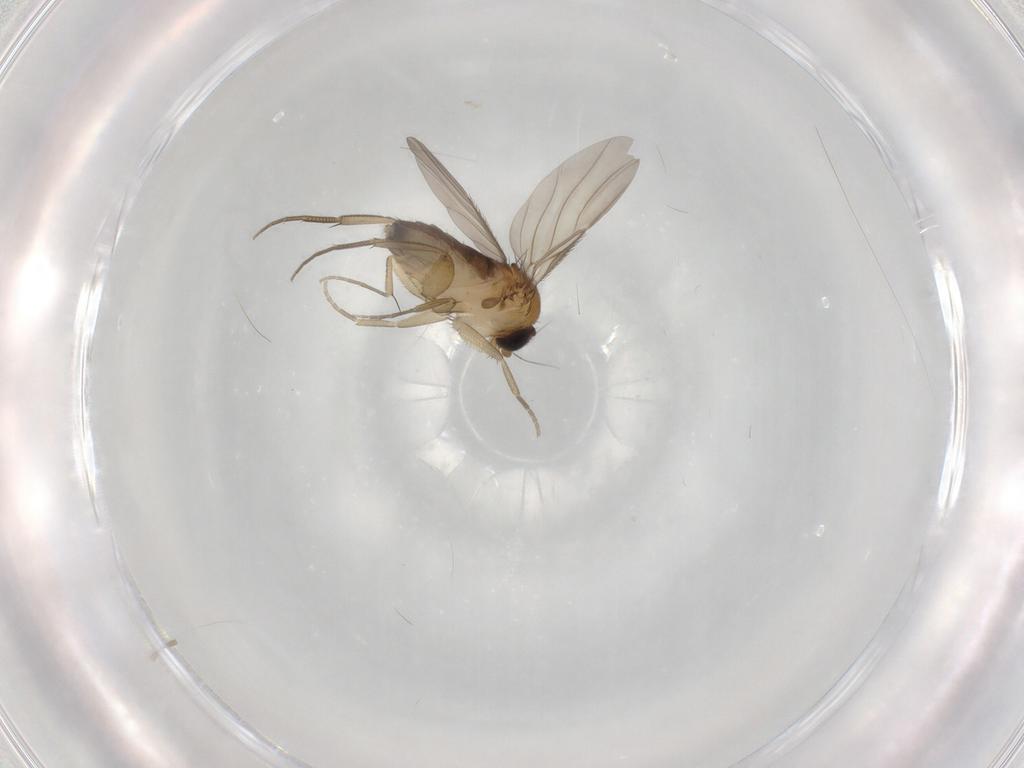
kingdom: Animalia
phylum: Arthropoda
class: Insecta
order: Diptera
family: Phoridae
